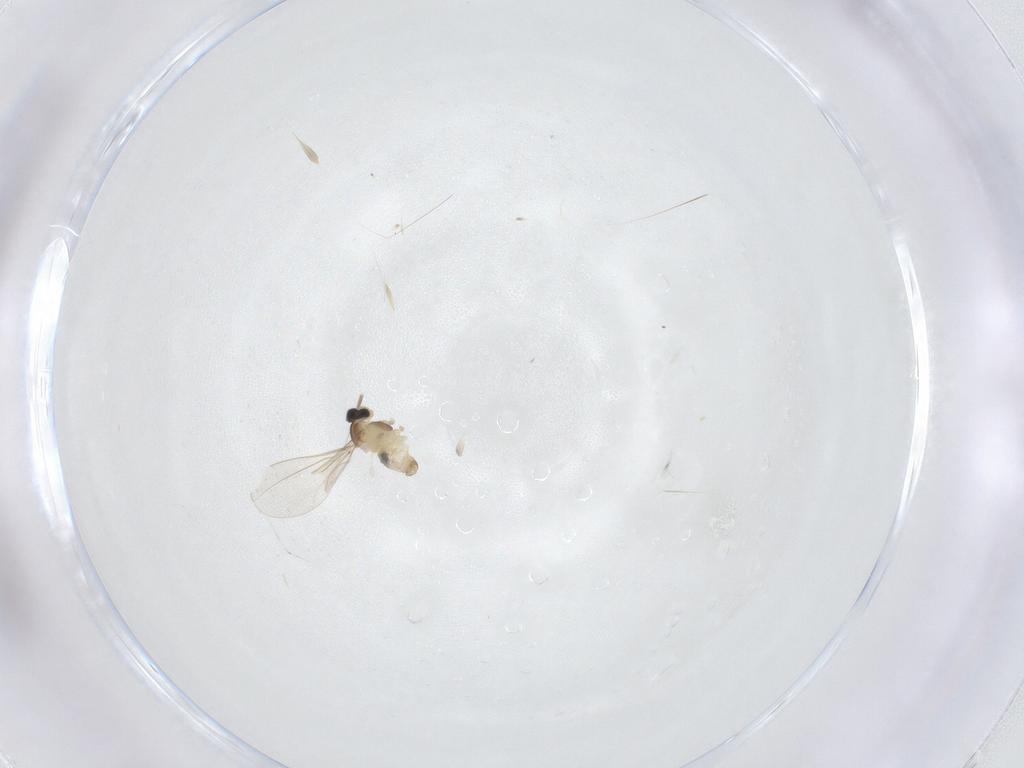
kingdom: Animalia
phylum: Arthropoda
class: Insecta
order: Diptera
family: Cecidomyiidae
